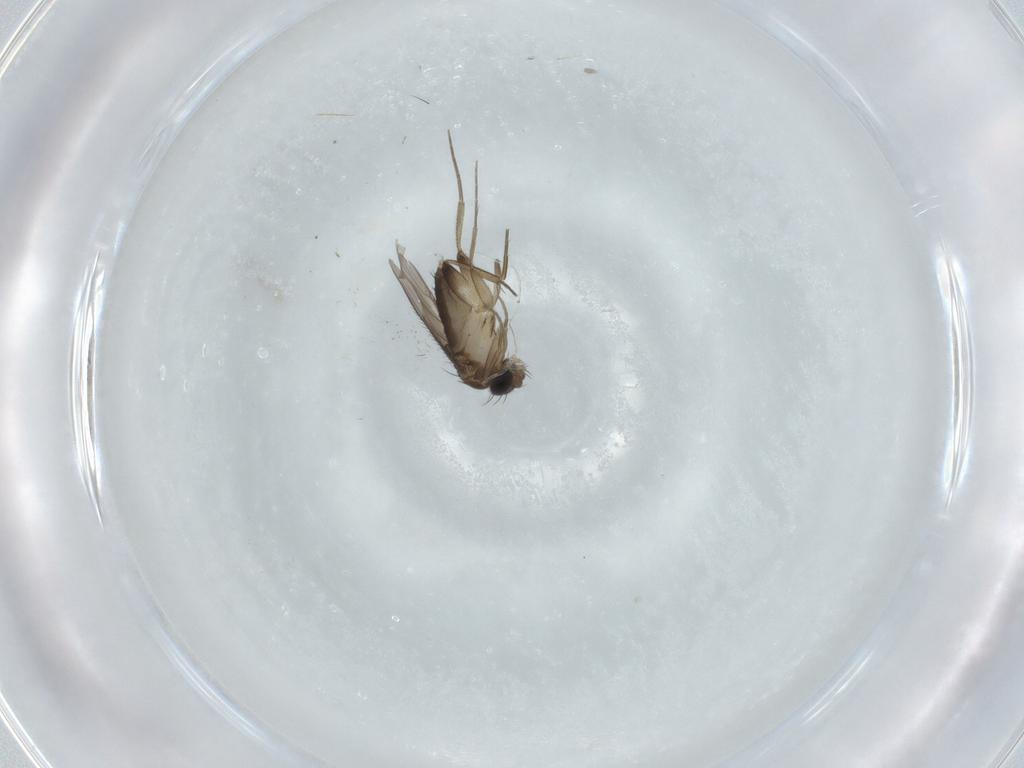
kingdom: Animalia
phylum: Arthropoda
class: Insecta
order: Diptera
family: Phoridae
